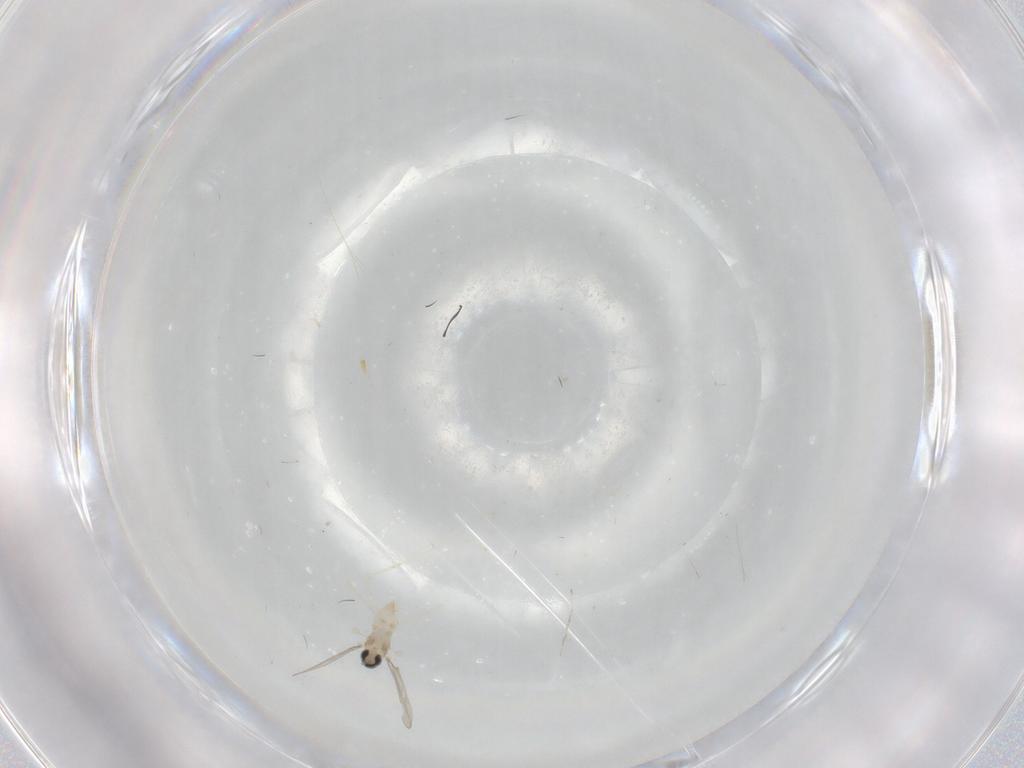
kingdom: Animalia
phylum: Arthropoda
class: Insecta
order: Diptera
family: Cecidomyiidae
